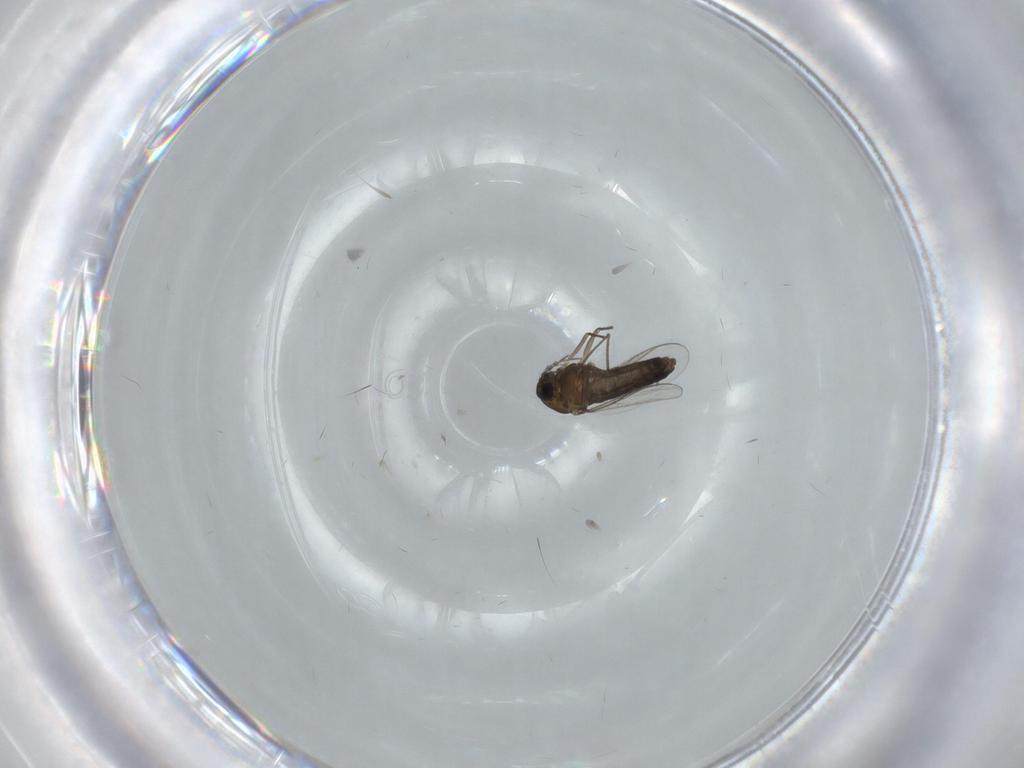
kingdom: Animalia
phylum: Arthropoda
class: Insecta
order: Diptera
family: Chironomidae
